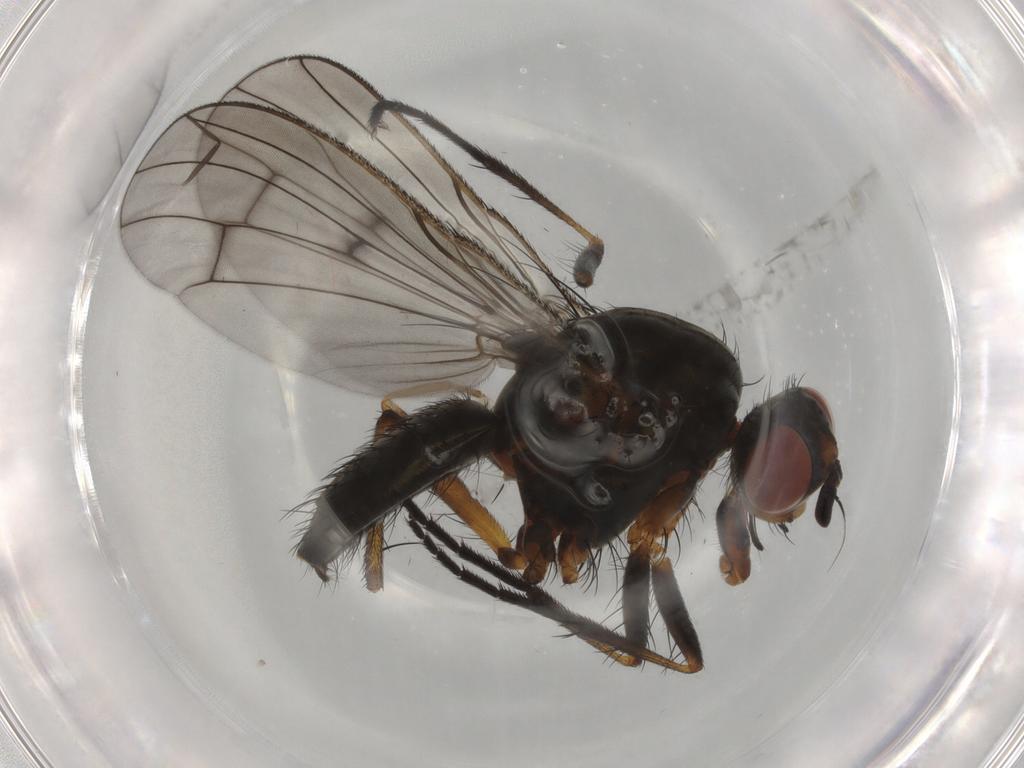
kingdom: Animalia
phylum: Arthropoda
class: Insecta
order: Diptera
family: Anthomyiidae
